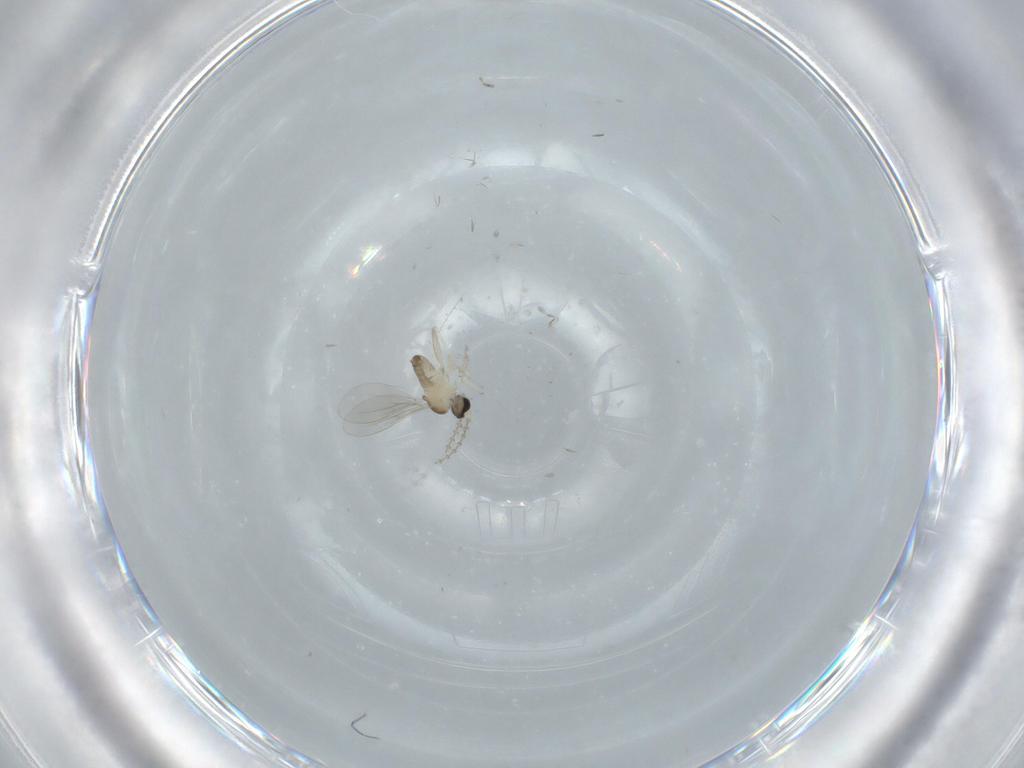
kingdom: Animalia
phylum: Arthropoda
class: Insecta
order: Diptera
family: Cecidomyiidae
